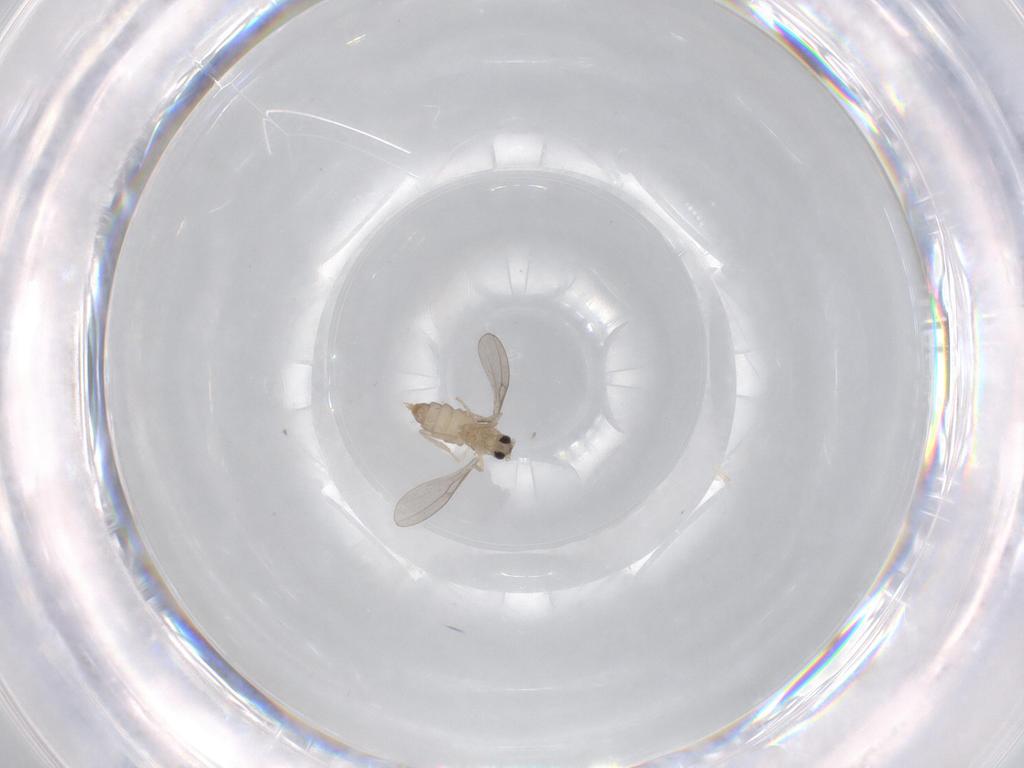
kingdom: Animalia
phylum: Arthropoda
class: Insecta
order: Diptera
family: Cecidomyiidae
